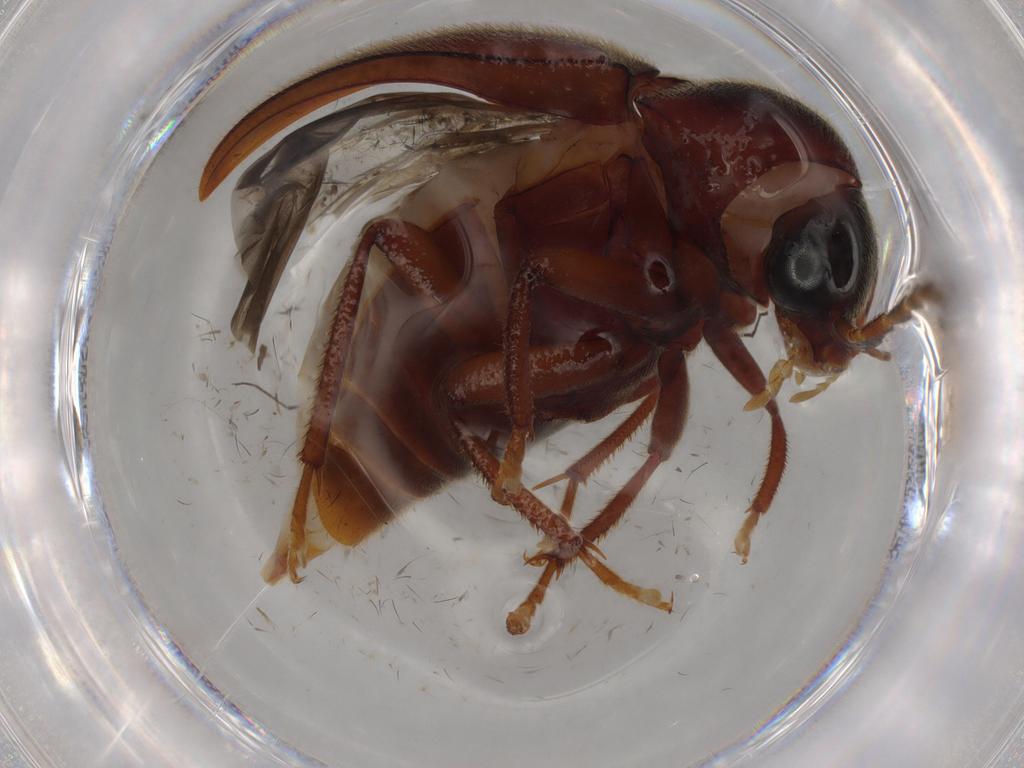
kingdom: Animalia
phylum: Arthropoda
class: Insecta
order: Coleoptera
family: Nitidulidae
